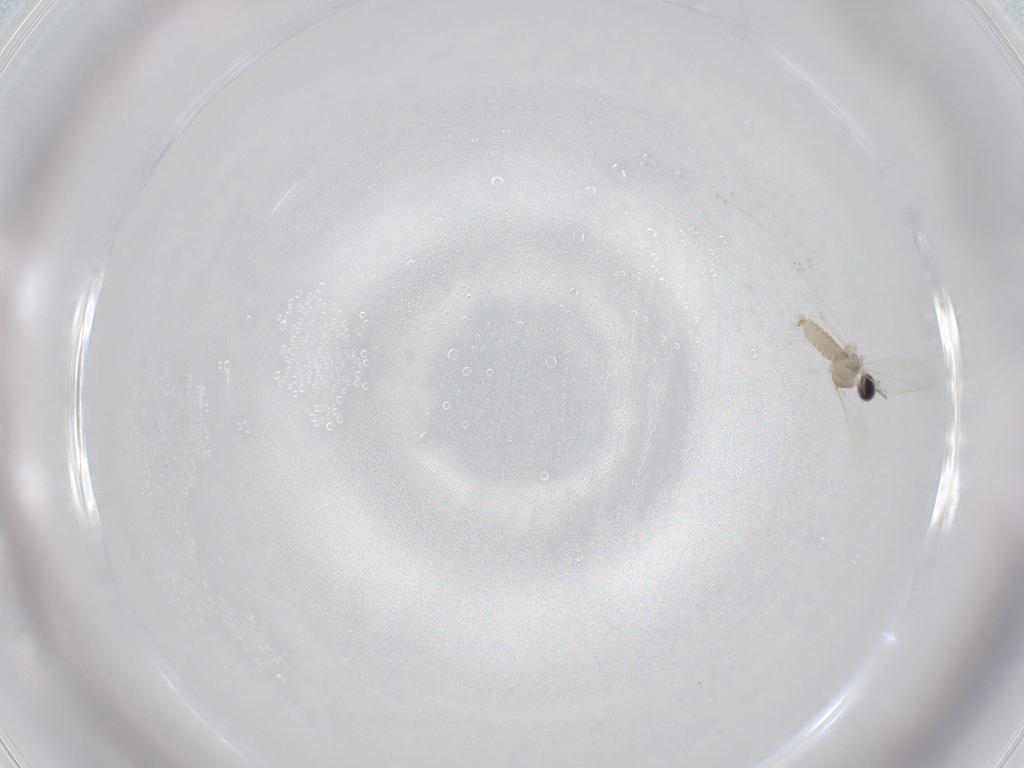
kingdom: Animalia
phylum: Arthropoda
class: Insecta
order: Diptera
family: Cecidomyiidae
